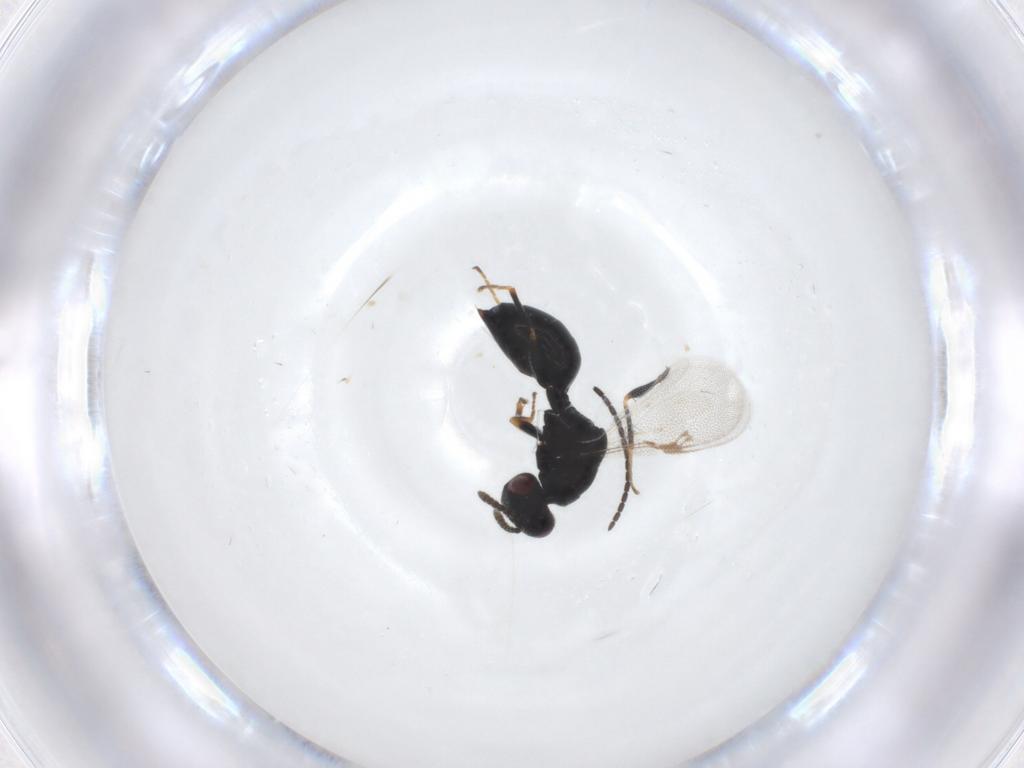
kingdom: Animalia
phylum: Arthropoda
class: Insecta
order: Hymenoptera
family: Eurytomidae
